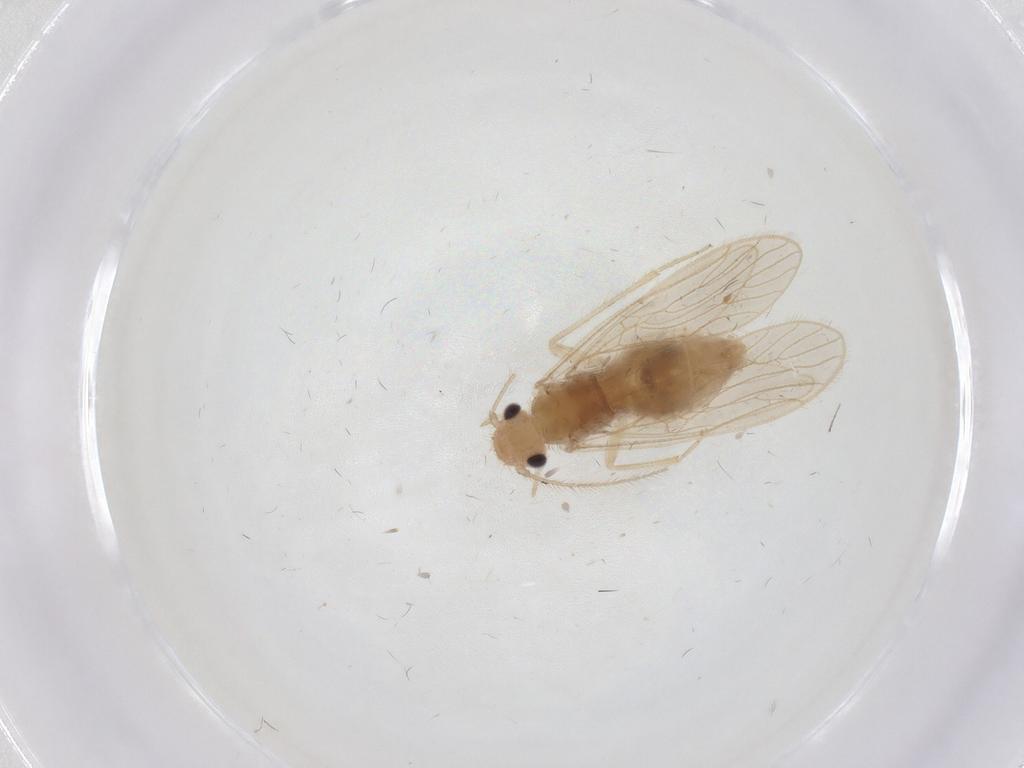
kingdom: Animalia
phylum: Arthropoda
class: Insecta
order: Psocodea
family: Cladiopsocidae
